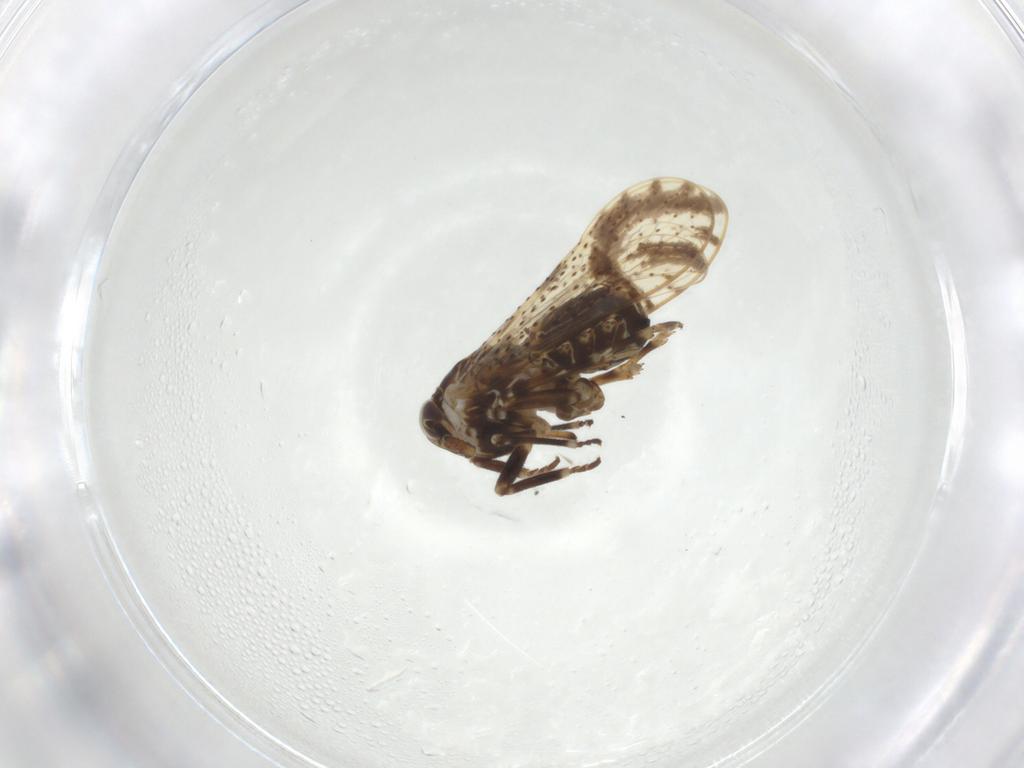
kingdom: Animalia
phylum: Arthropoda
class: Insecta
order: Hemiptera
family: Delphacidae
